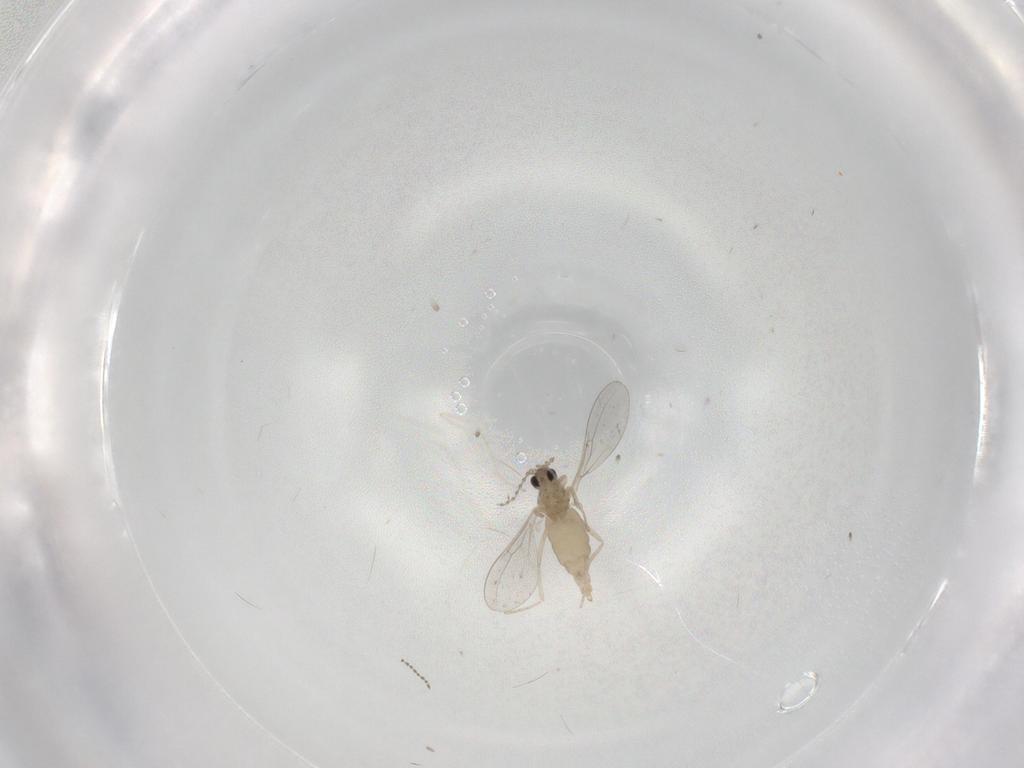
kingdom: Animalia
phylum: Arthropoda
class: Insecta
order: Diptera
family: Cecidomyiidae
